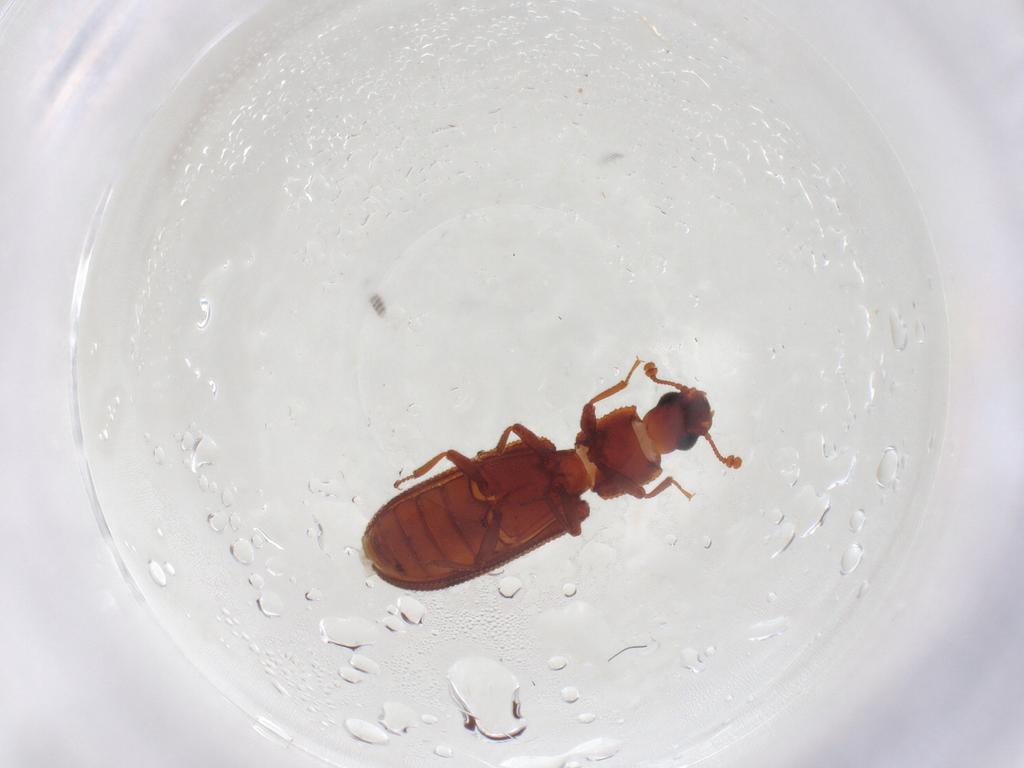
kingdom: Animalia
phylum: Arthropoda
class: Insecta
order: Coleoptera
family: Zopheridae
